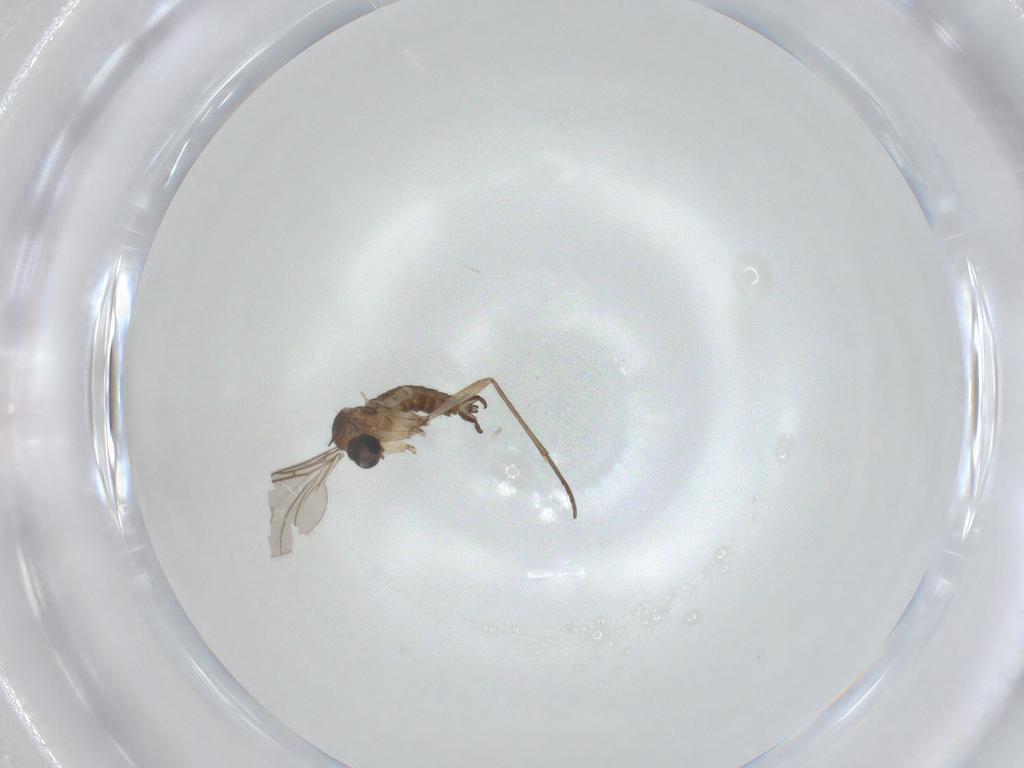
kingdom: Animalia
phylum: Arthropoda
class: Insecta
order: Diptera
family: Sciaridae
